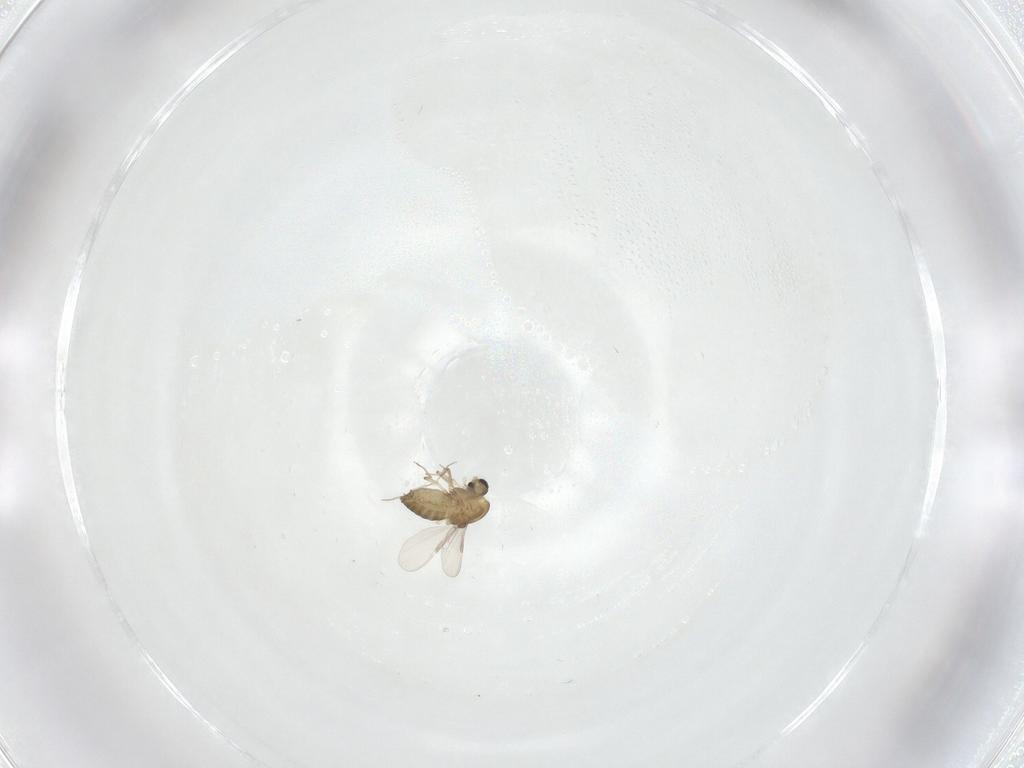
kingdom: Animalia
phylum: Arthropoda
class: Insecta
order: Diptera
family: Chironomidae
